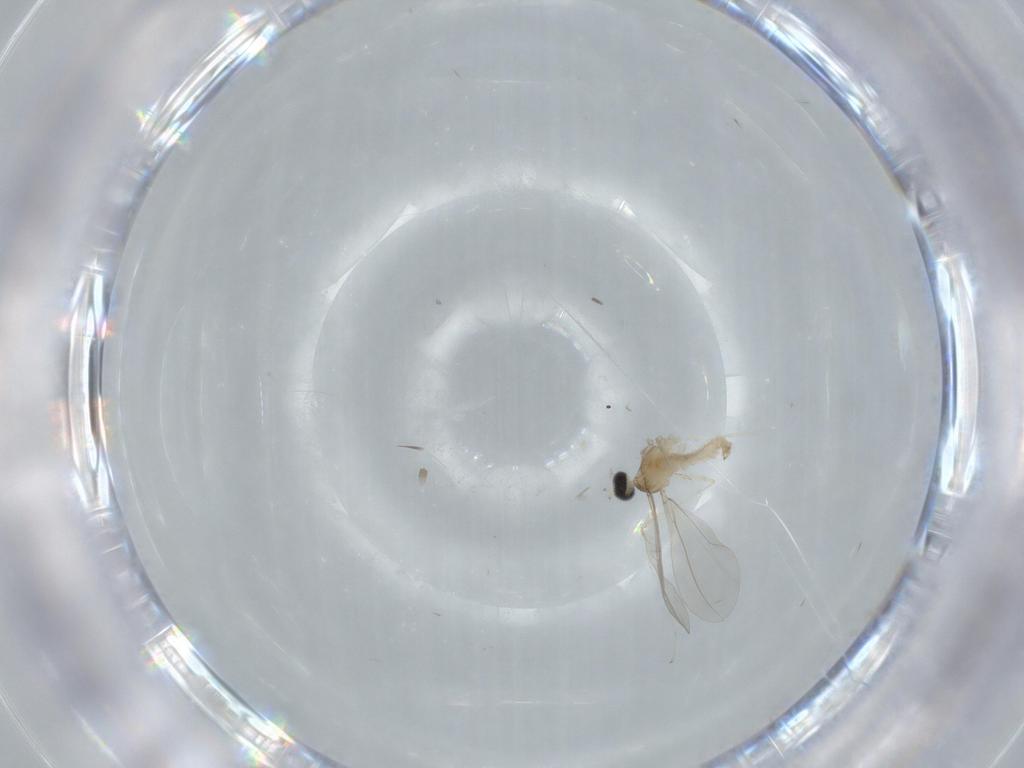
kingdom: Animalia
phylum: Arthropoda
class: Insecta
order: Diptera
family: Cecidomyiidae
